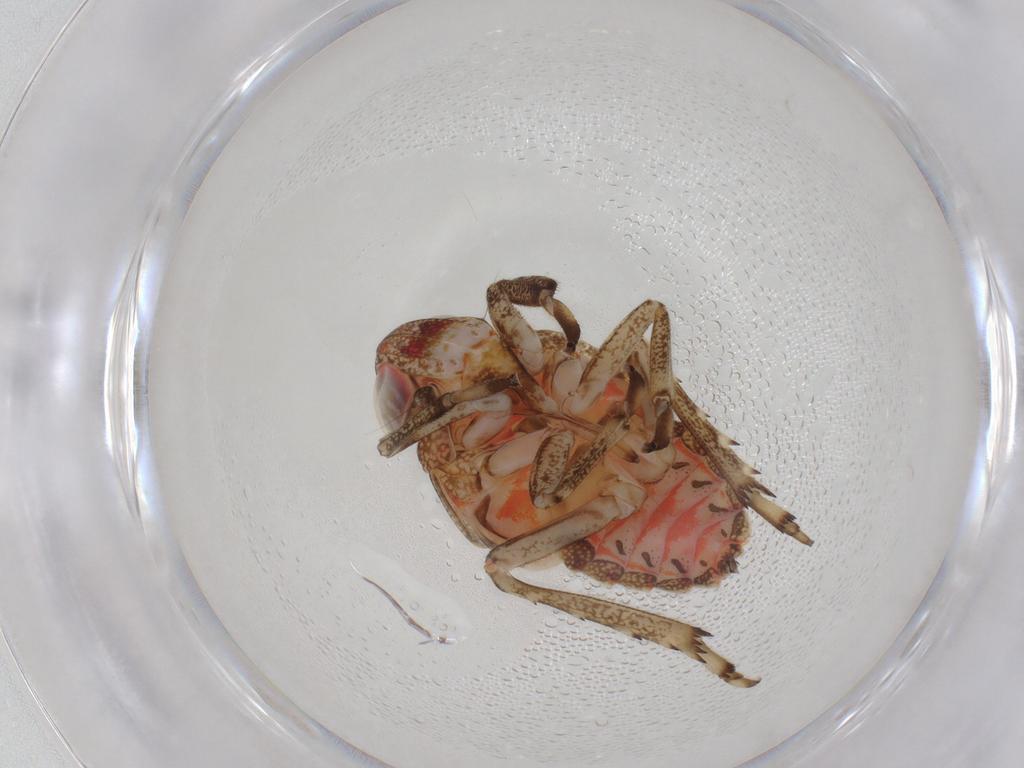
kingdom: Animalia
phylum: Arthropoda
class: Insecta
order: Hemiptera
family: Issidae
